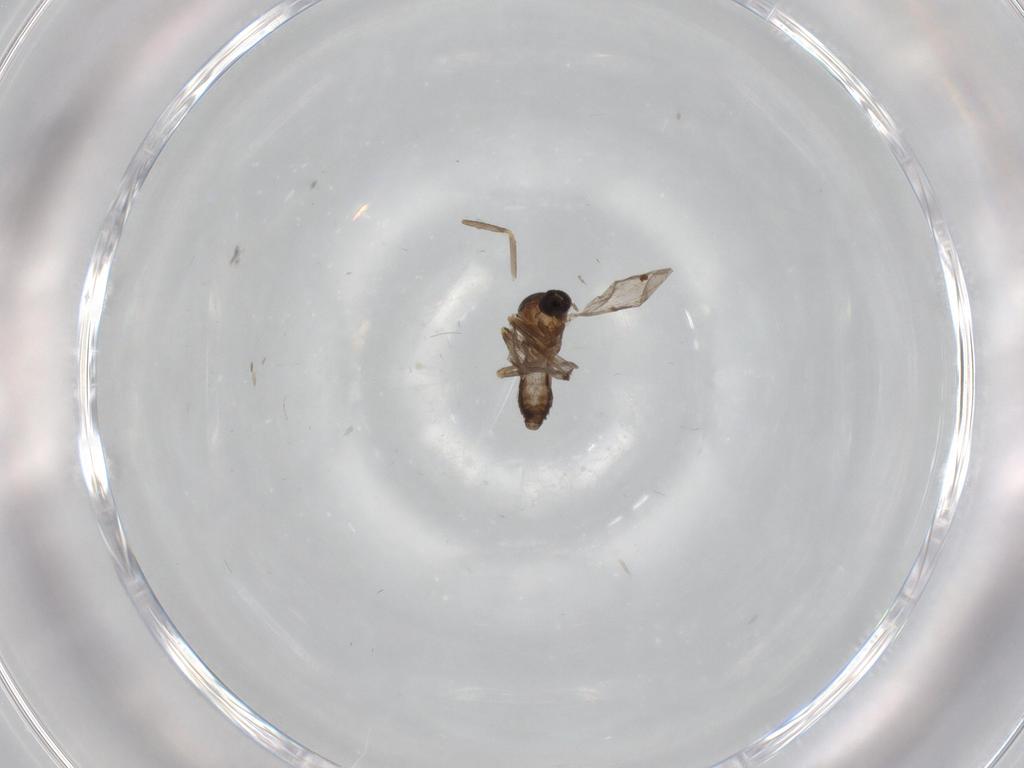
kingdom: Animalia
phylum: Arthropoda
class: Insecta
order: Diptera
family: Ceratopogonidae
